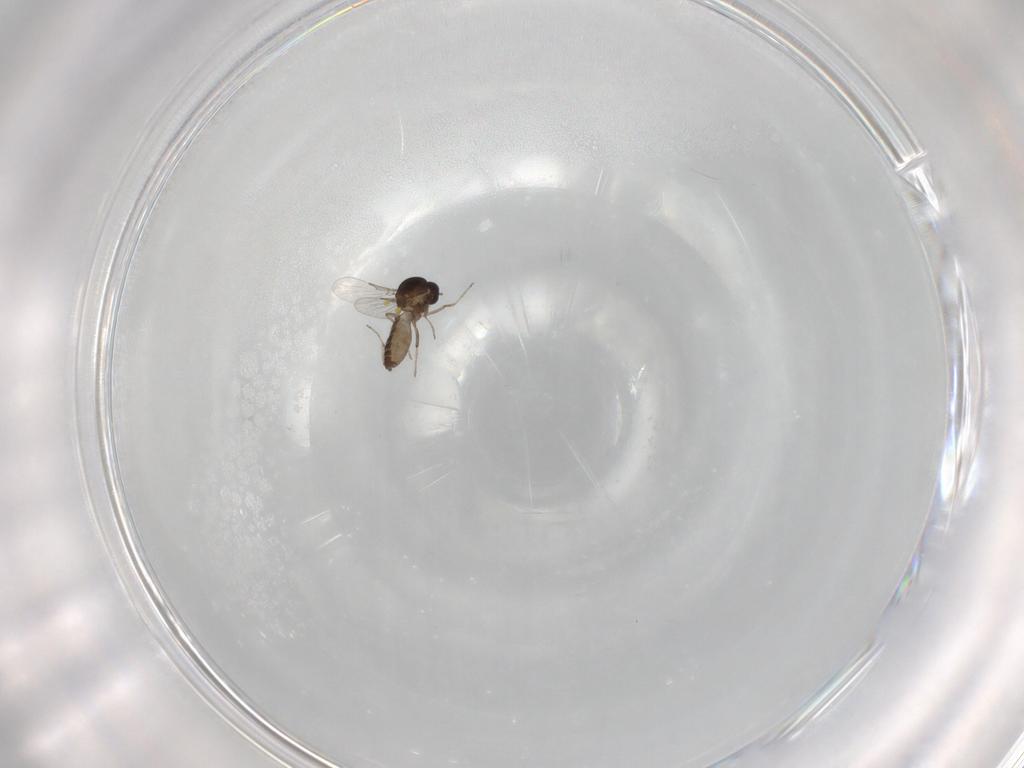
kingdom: Animalia
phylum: Arthropoda
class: Insecta
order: Diptera
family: Ceratopogonidae
